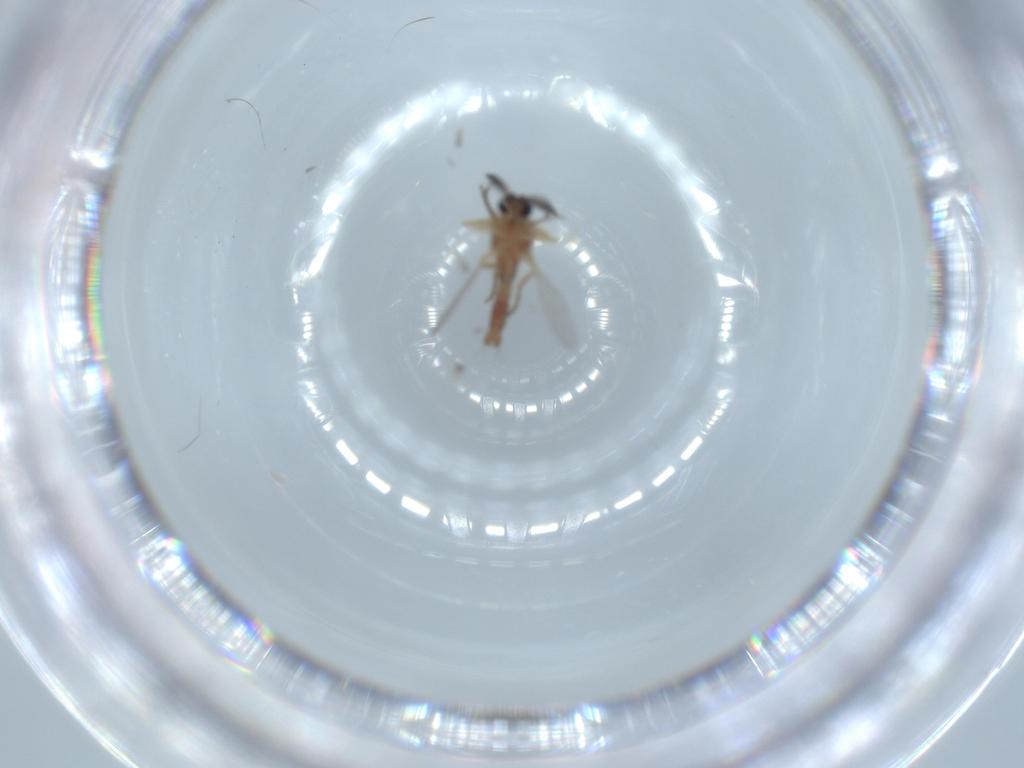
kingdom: Animalia
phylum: Arthropoda
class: Insecta
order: Diptera
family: Ceratopogonidae
